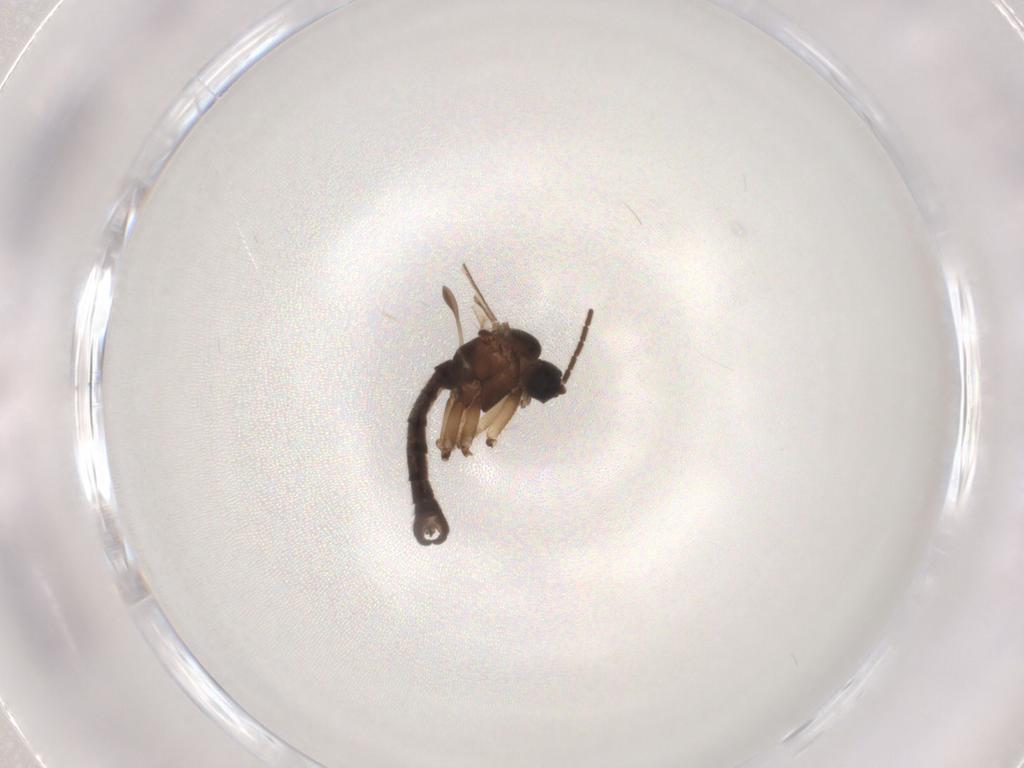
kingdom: Animalia
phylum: Arthropoda
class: Insecta
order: Diptera
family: Sciaridae
